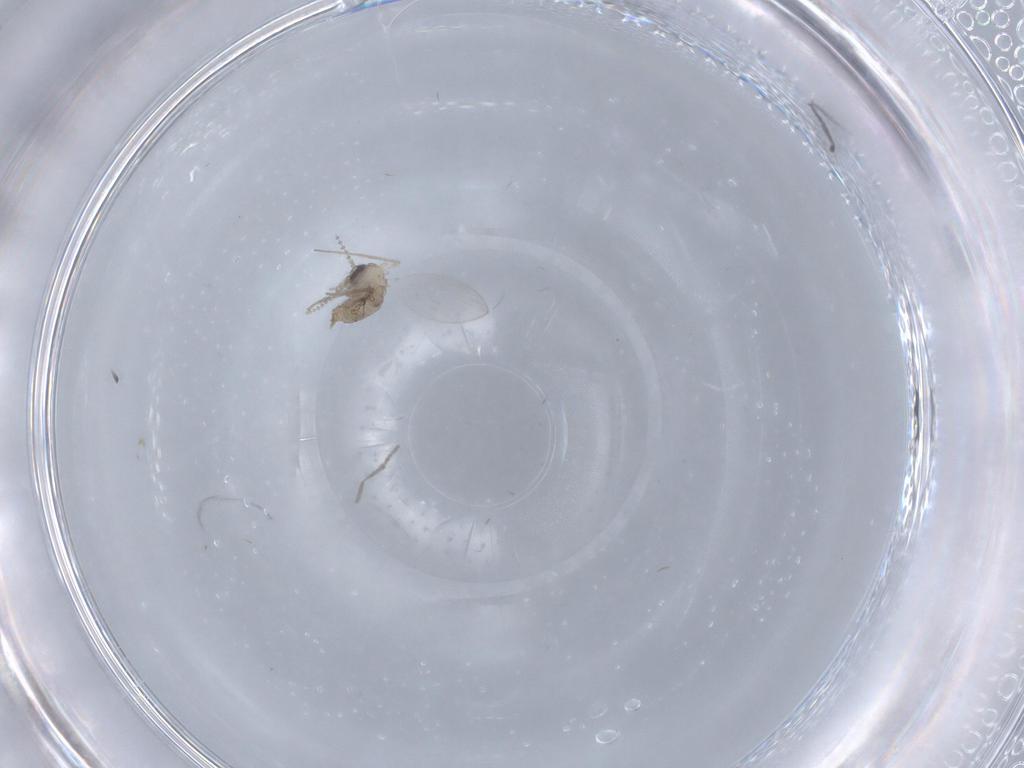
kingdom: Animalia
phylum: Arthropoda
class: Insecta
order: Diptera
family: Psychodidae
